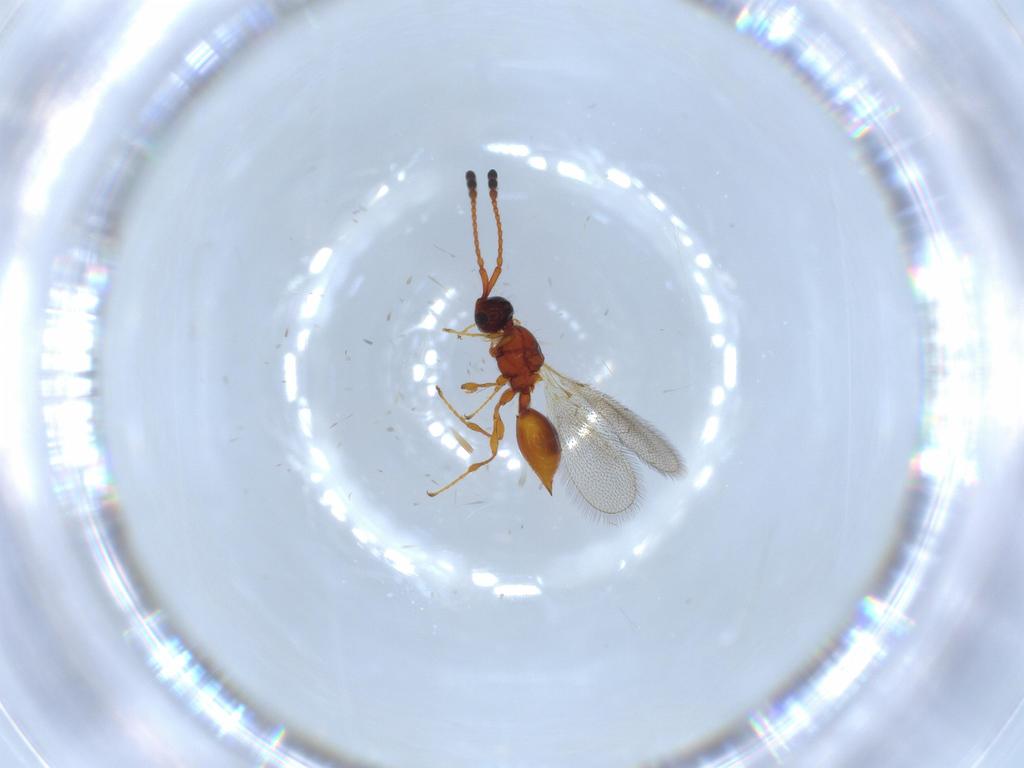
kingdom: Animalia
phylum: Arthropoda
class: Insecta
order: Hymenoptera
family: Diapriidae
